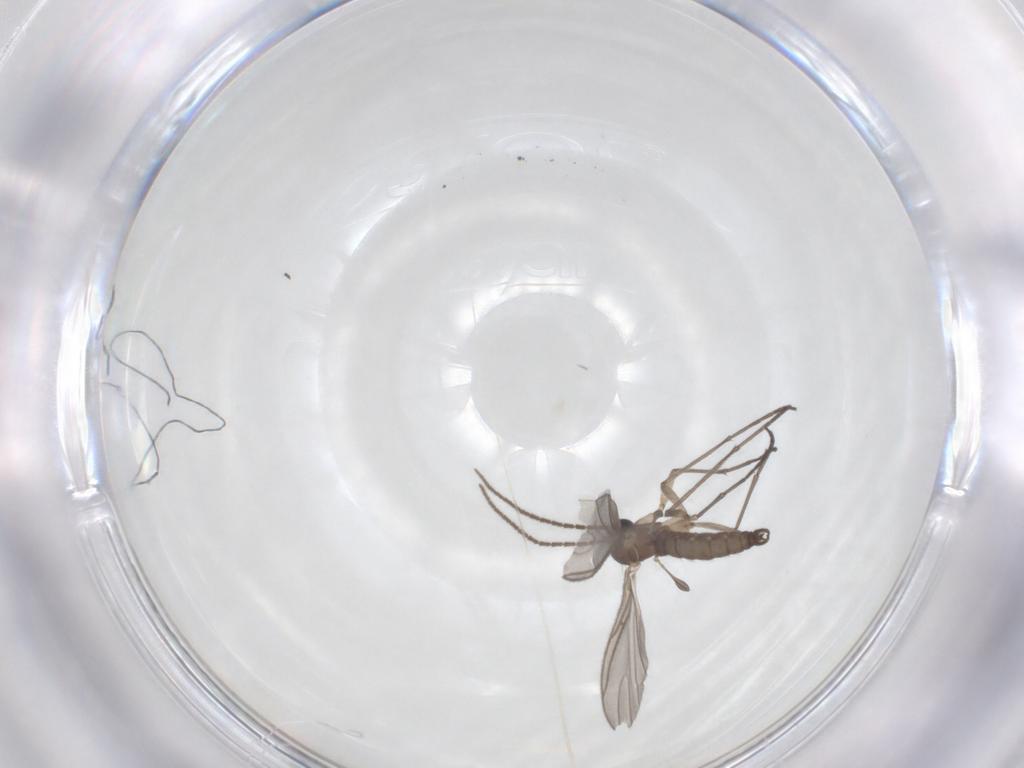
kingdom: Animalia
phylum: Arthropoda
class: Insecta
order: Diptera
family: Sciaridae
